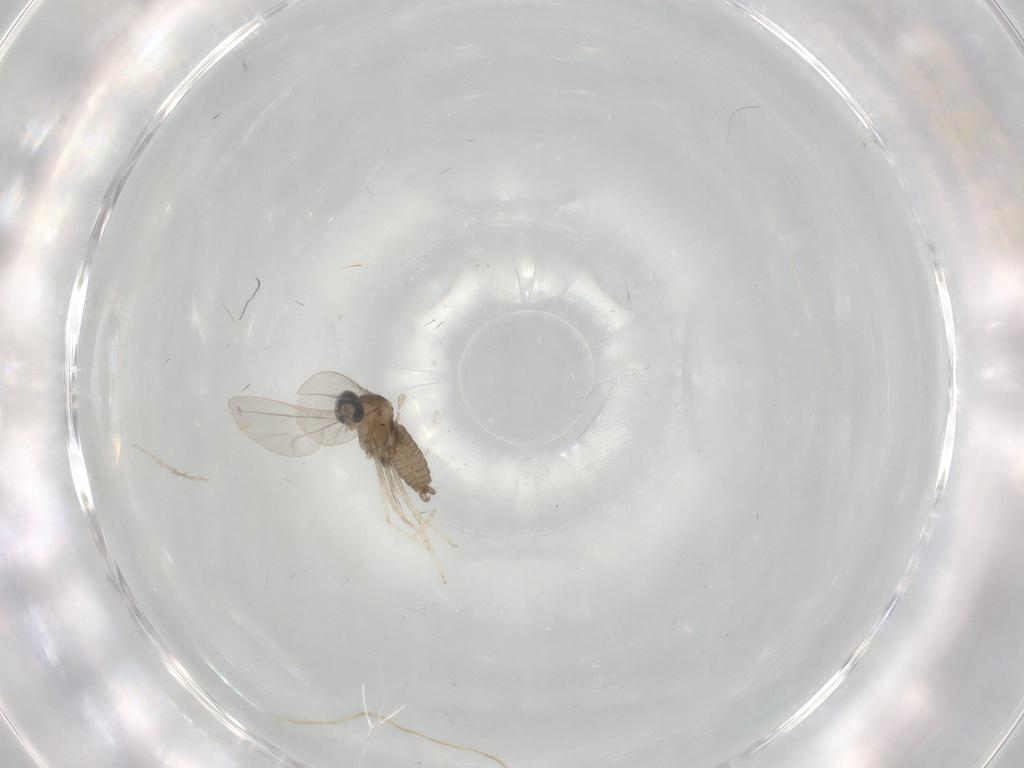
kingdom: Animalia
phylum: Arthropoda
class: Insecta
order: Diptera
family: Cecidomyiidae
